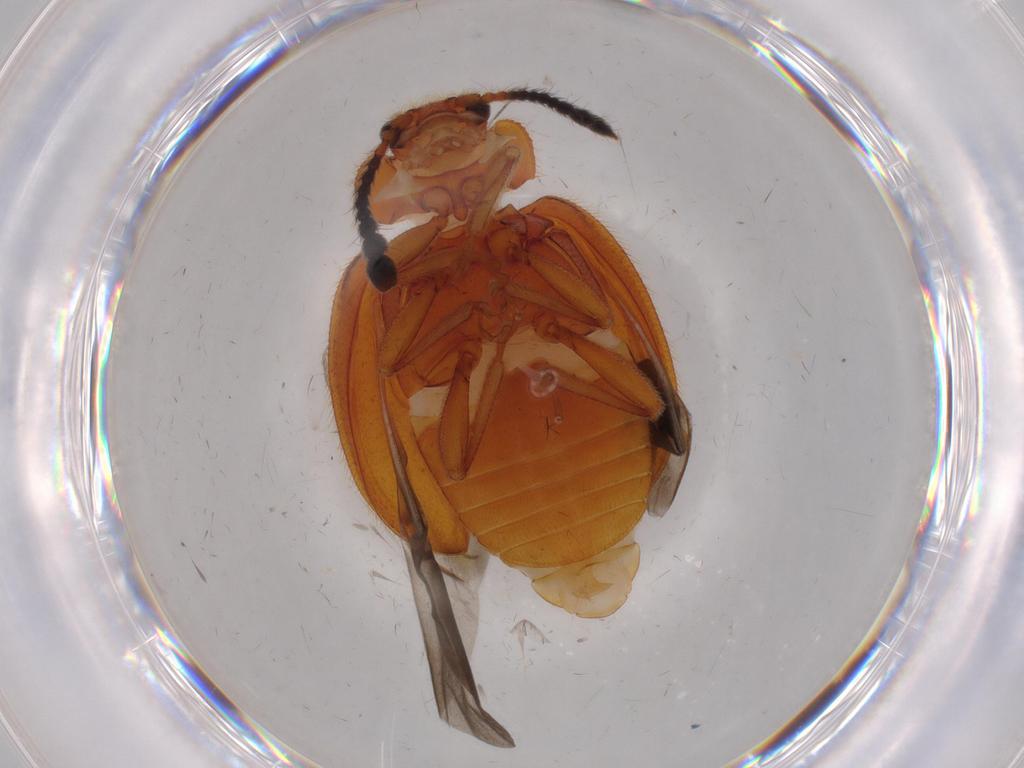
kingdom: Animalia
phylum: Arthropoda
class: Insecta
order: Coleoptera
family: Endomychidae
